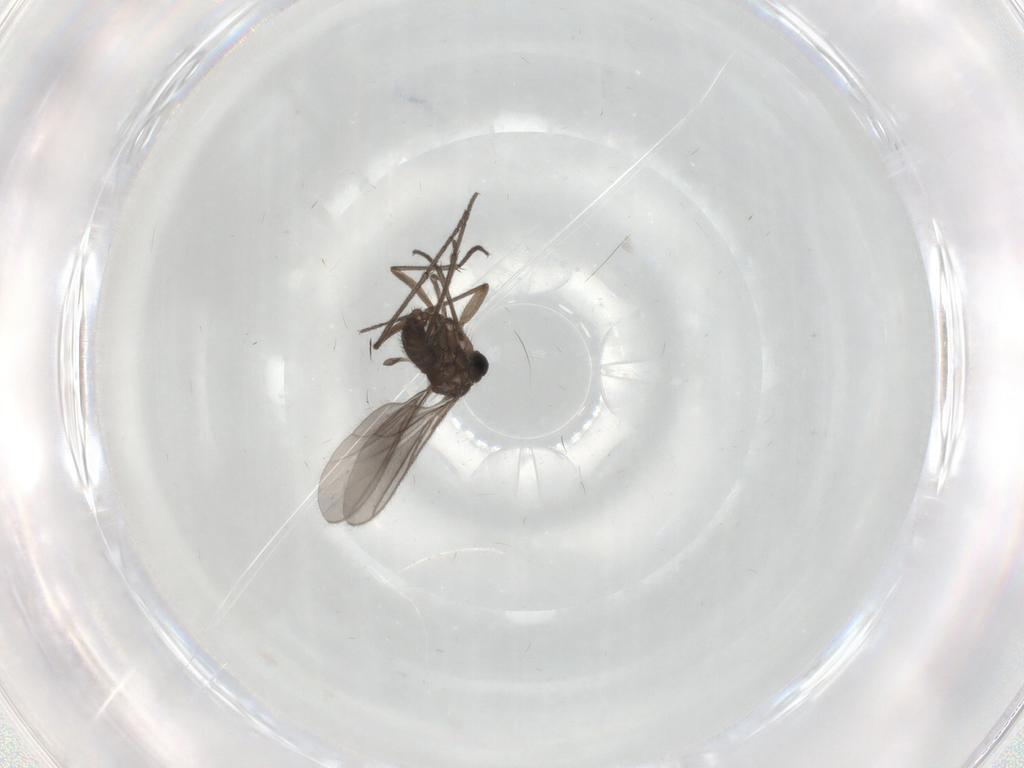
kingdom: Animalia
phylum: Arthropoda
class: Insecta
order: Diptera
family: Sciaridae
